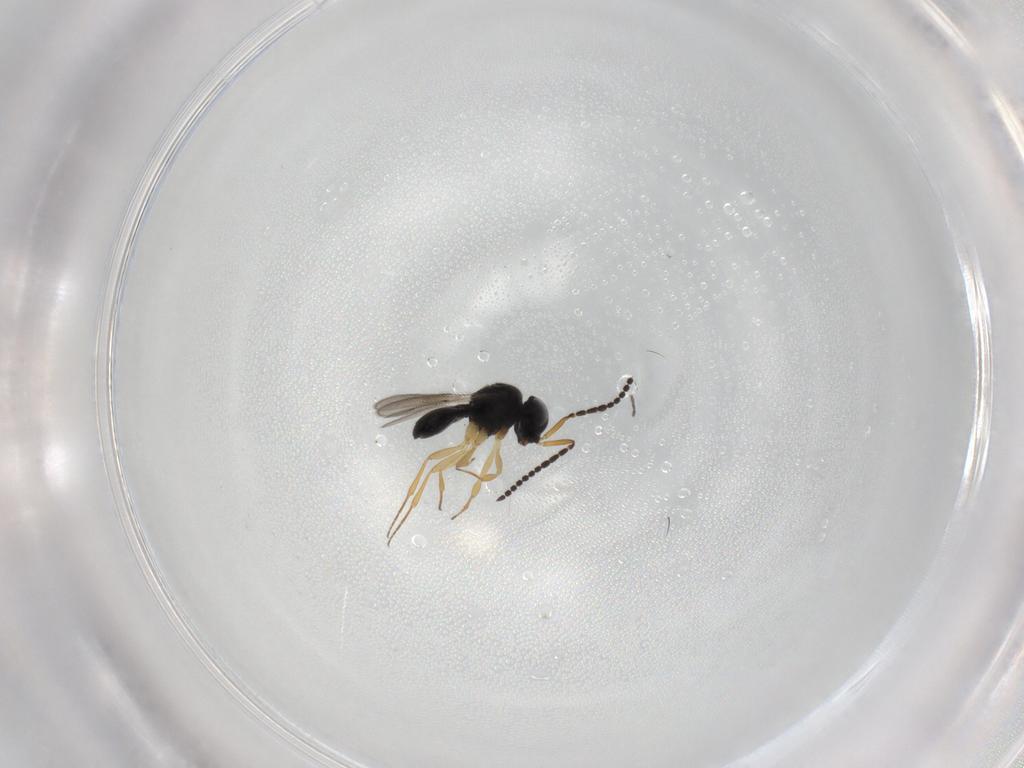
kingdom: Animalia
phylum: Arthropoda
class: Insecta
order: Hymenoptera
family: Scelionidae
